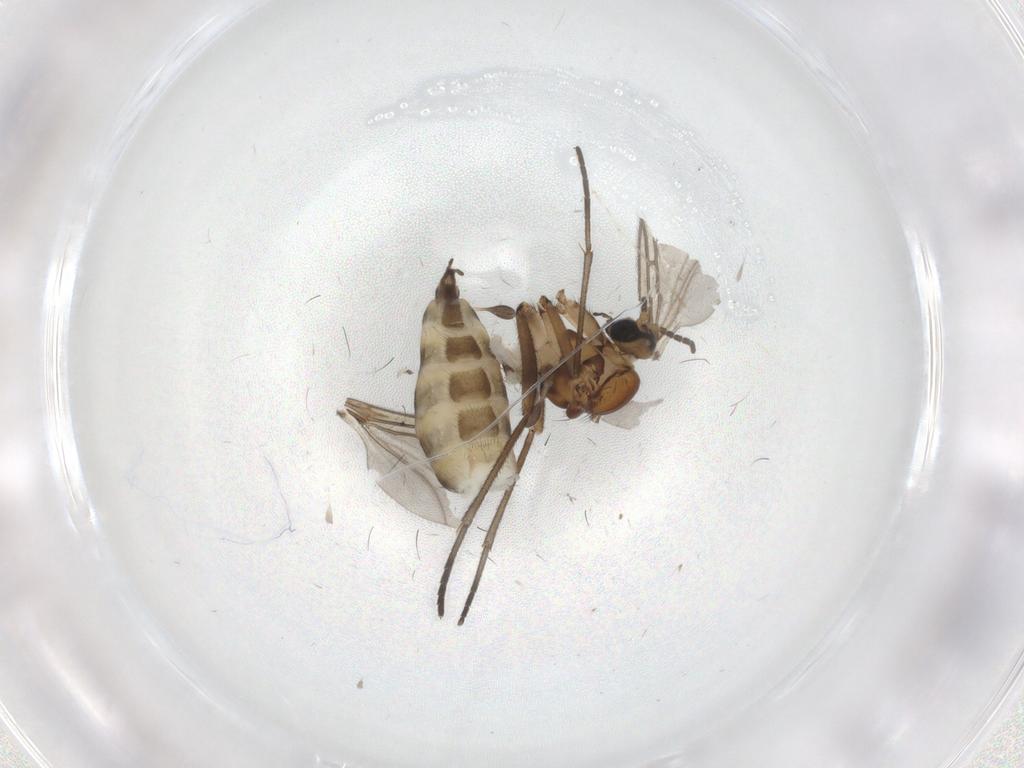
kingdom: Animalia
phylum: Arthropoda
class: Insecta
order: Diptera
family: Sciaridae
